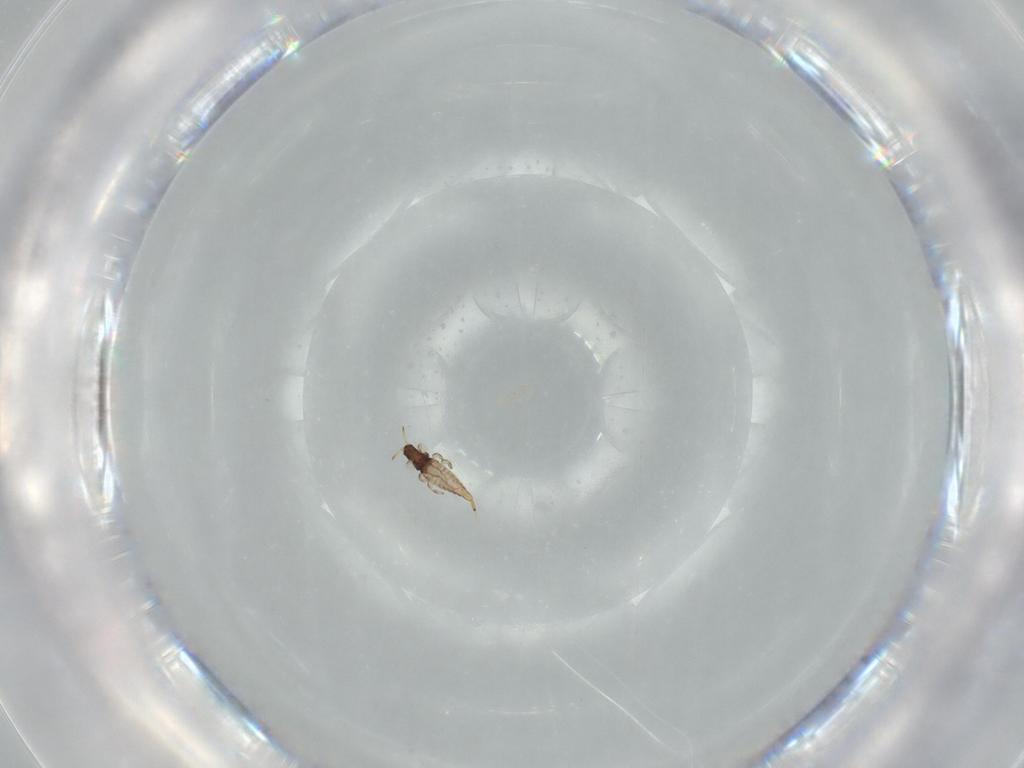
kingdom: Animalia
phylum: Arthropoda
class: Insecta
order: Thysanoptera
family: Phlaeothripidae
